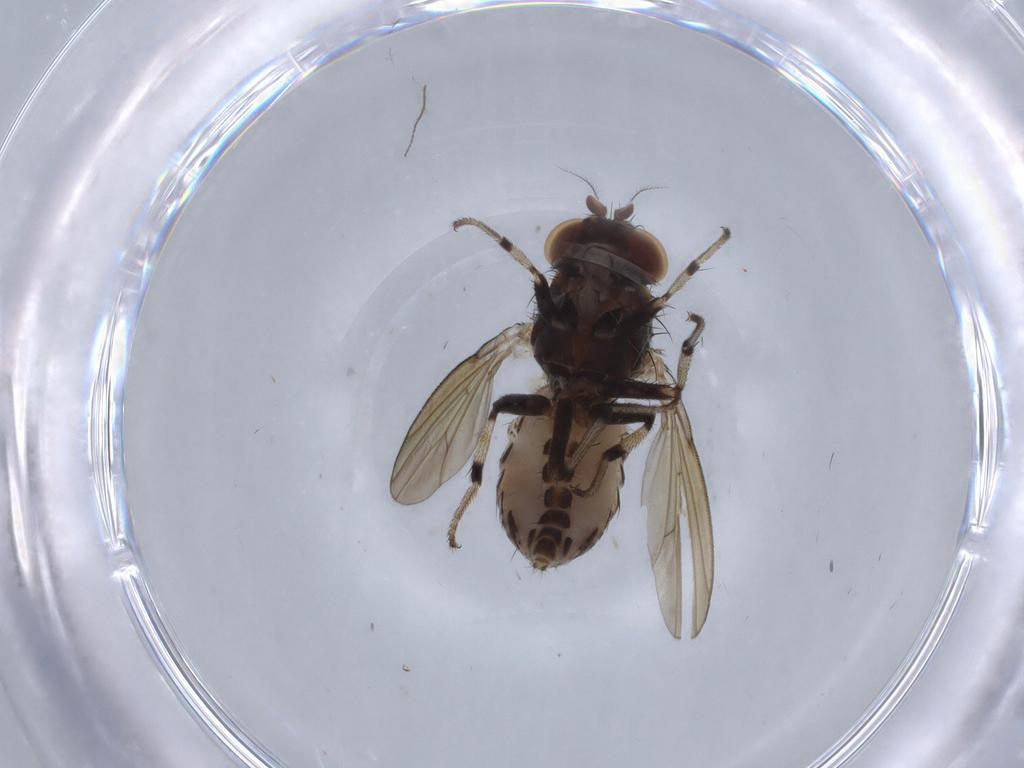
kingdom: Animalia
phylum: Arthropoda
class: Insecta
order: Diptera
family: Chironomidae
